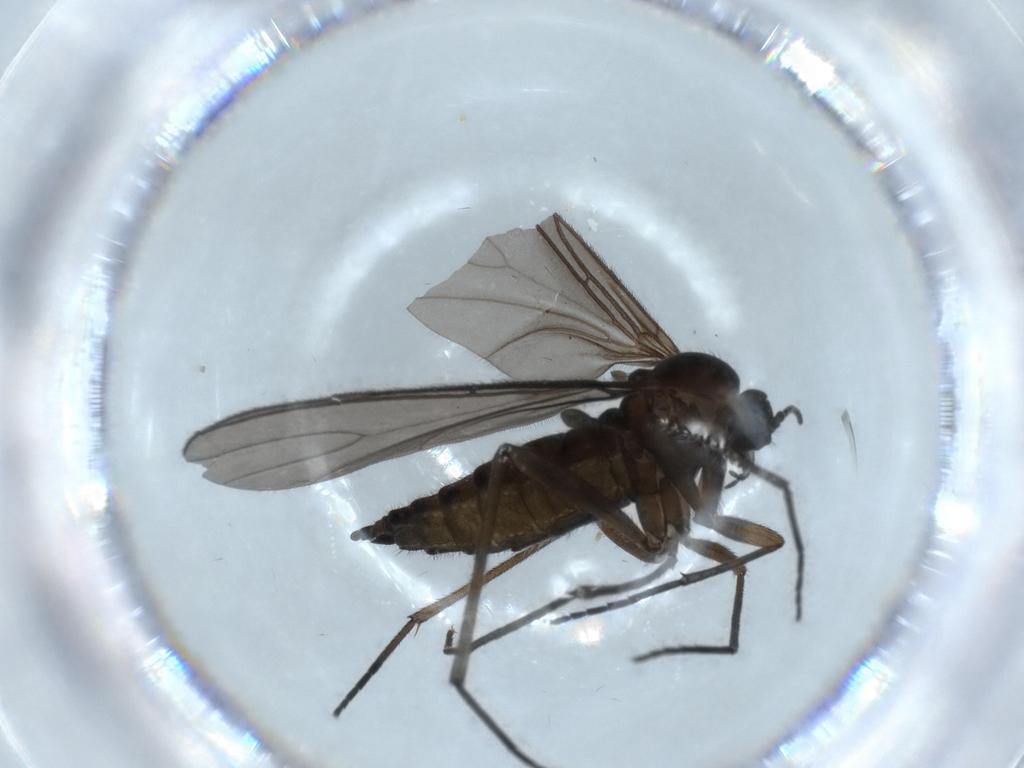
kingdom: Animalia
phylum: Arthropoda
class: Insecta
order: Diptera
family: Sciaridae
